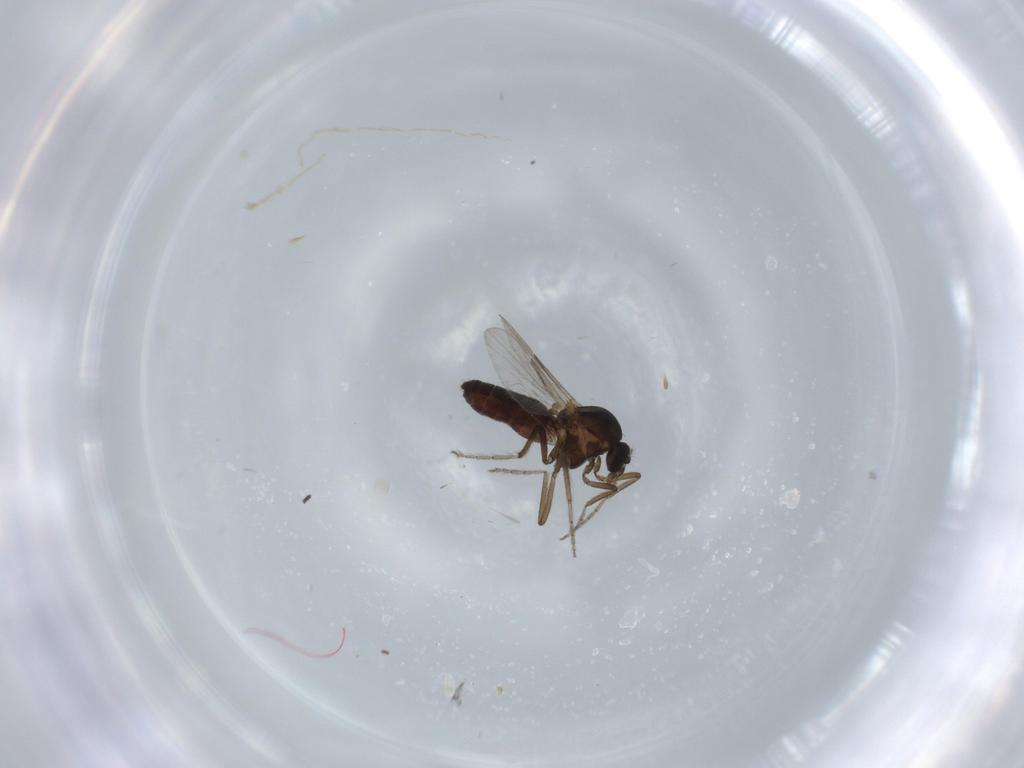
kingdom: Animalia
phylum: Arthropoda
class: Insecta
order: Diptera
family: Ceratopogonidae
